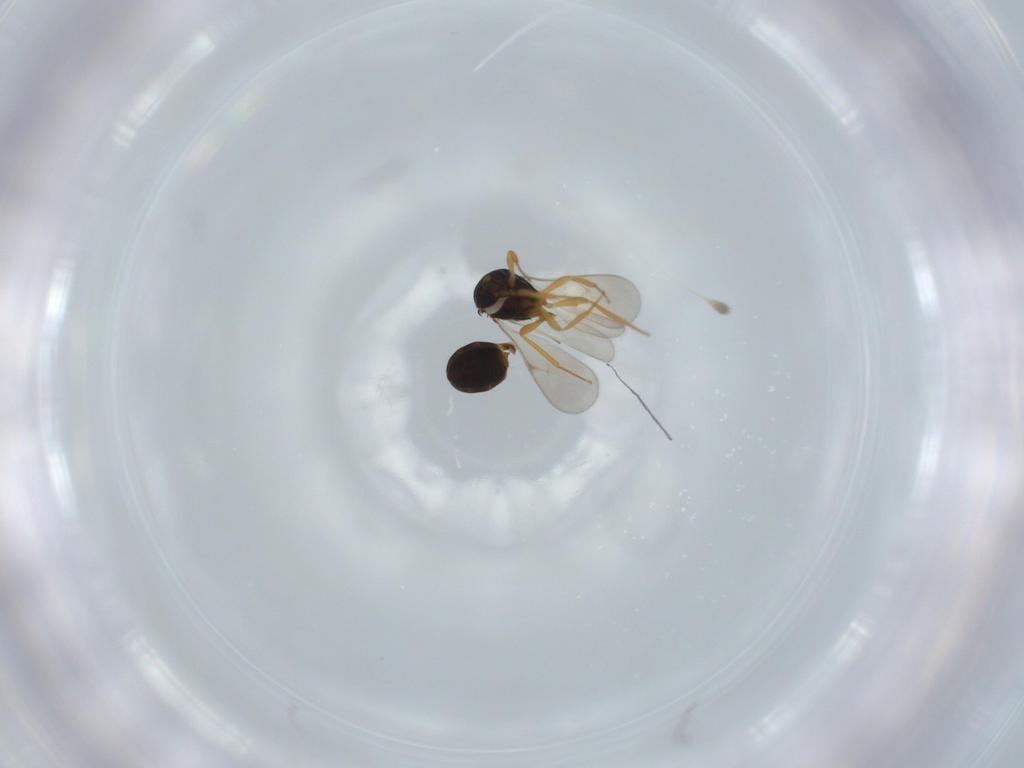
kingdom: Animalia
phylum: Arthropoda
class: Insecta
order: Hymenoptera
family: Scelionidae
